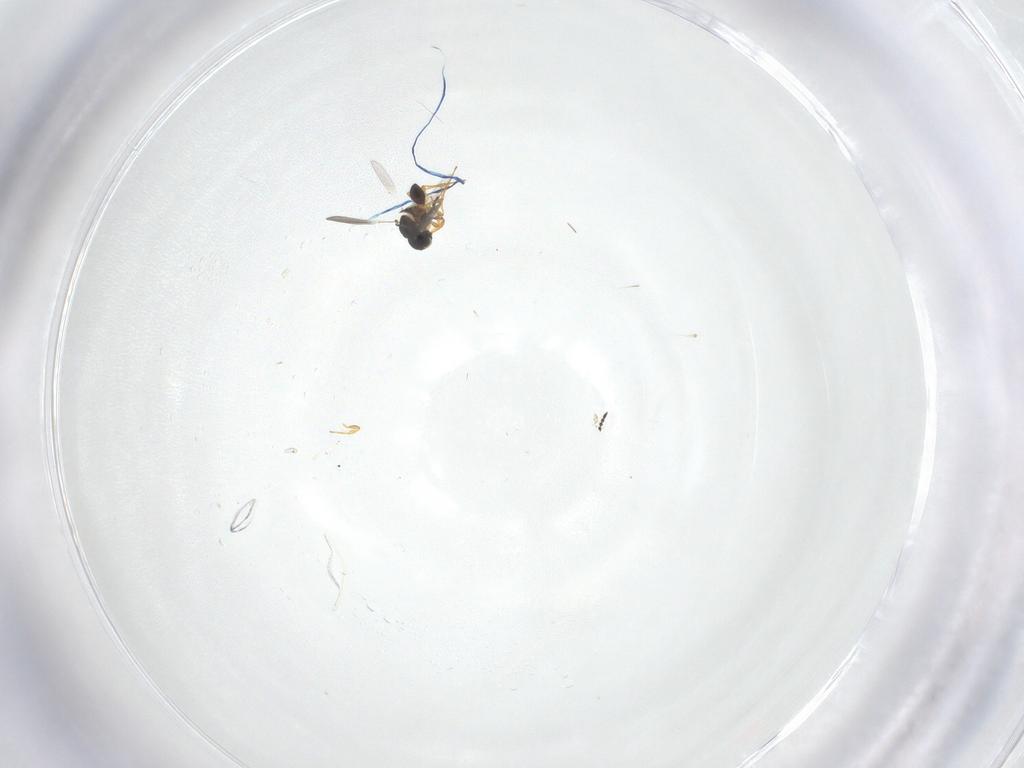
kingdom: Animalia
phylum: Arthropoda
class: Insecta
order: Hymenoptera
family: Platygastridae
